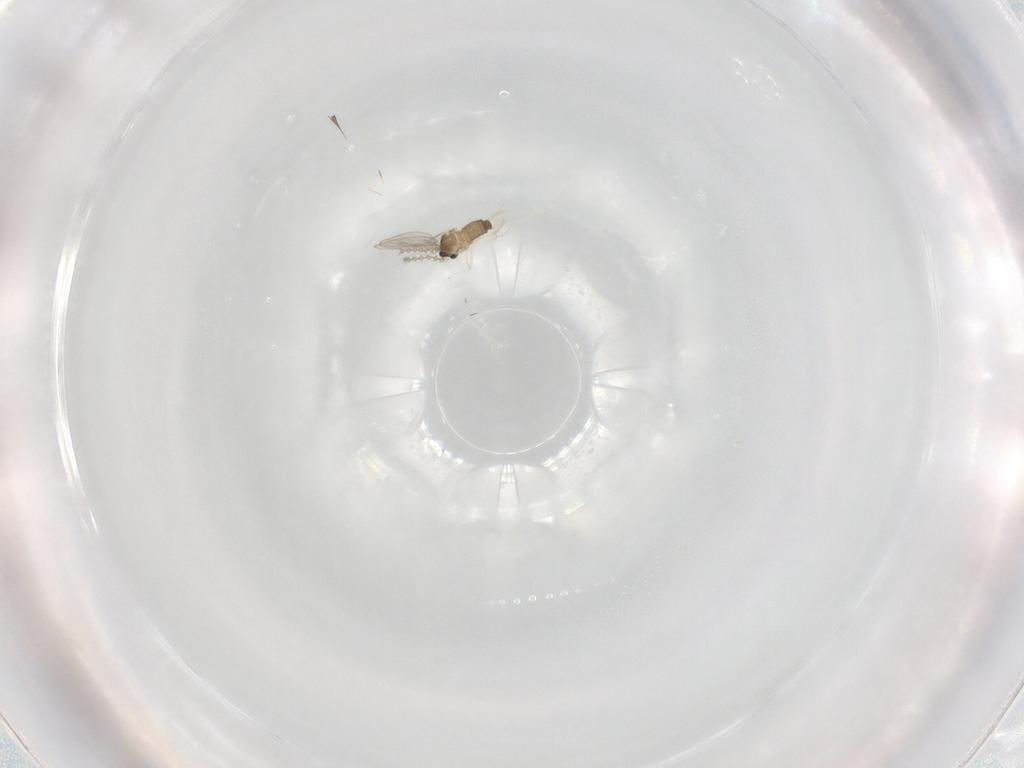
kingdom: Animalia
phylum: Arthropoda
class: Insecta
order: Diptera
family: Cecidomyiidae
